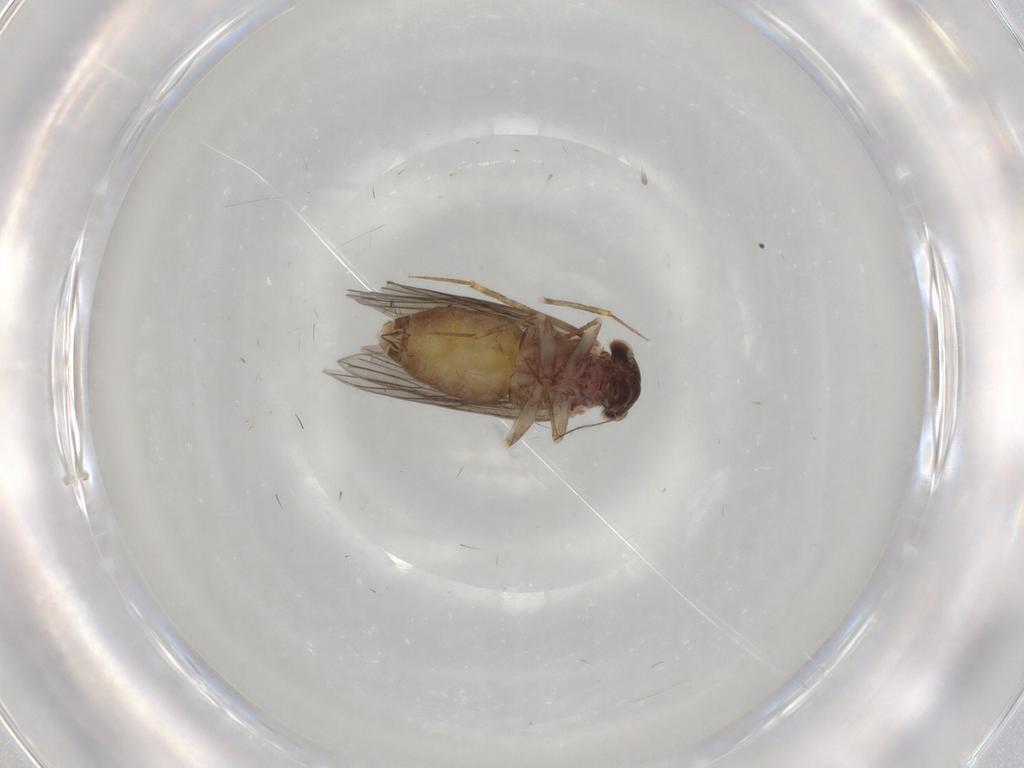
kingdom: Animalia
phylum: Arthropoda
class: Insecta
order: Psocodea
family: Lepidopsocidae
